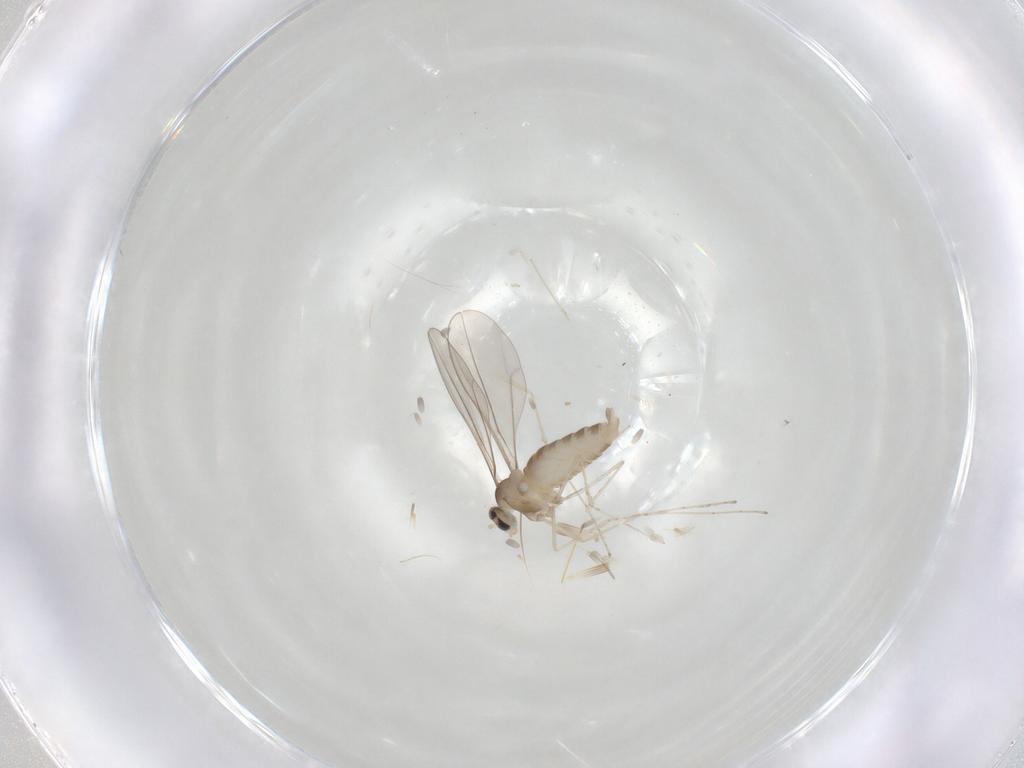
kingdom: Animalia
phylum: Arthropoda
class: Insecta
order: Diptera
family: Cecidomyiidae
